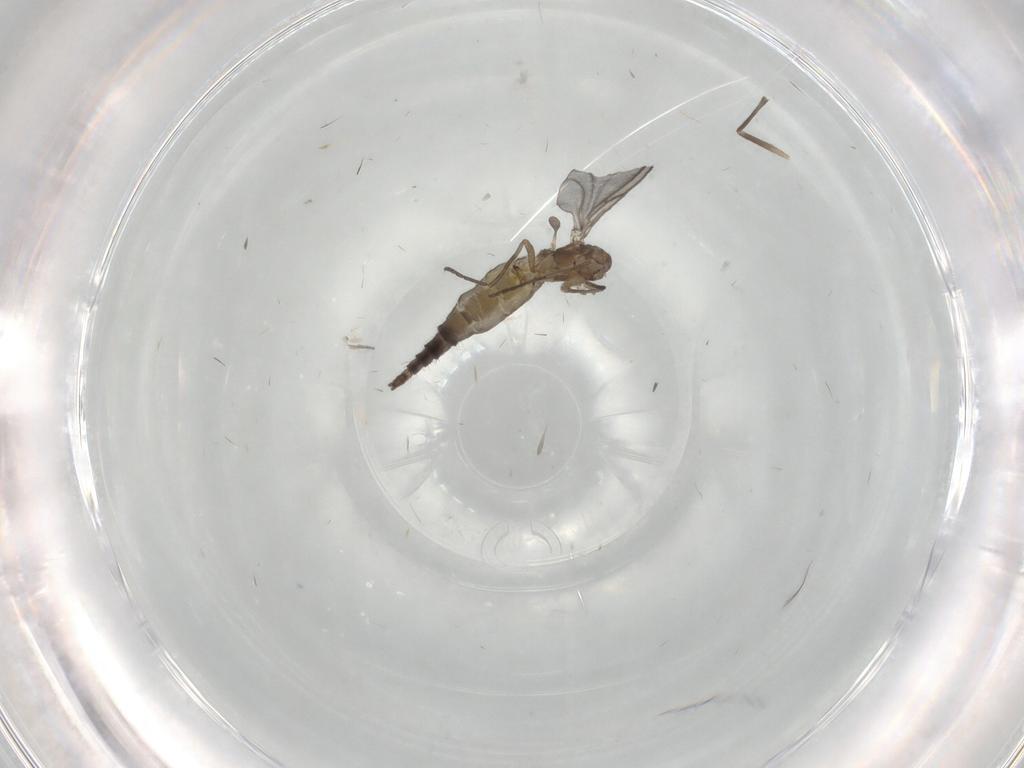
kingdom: Animalia
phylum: Arthropoda
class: Insecta
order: Diptera
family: Sciaridae
